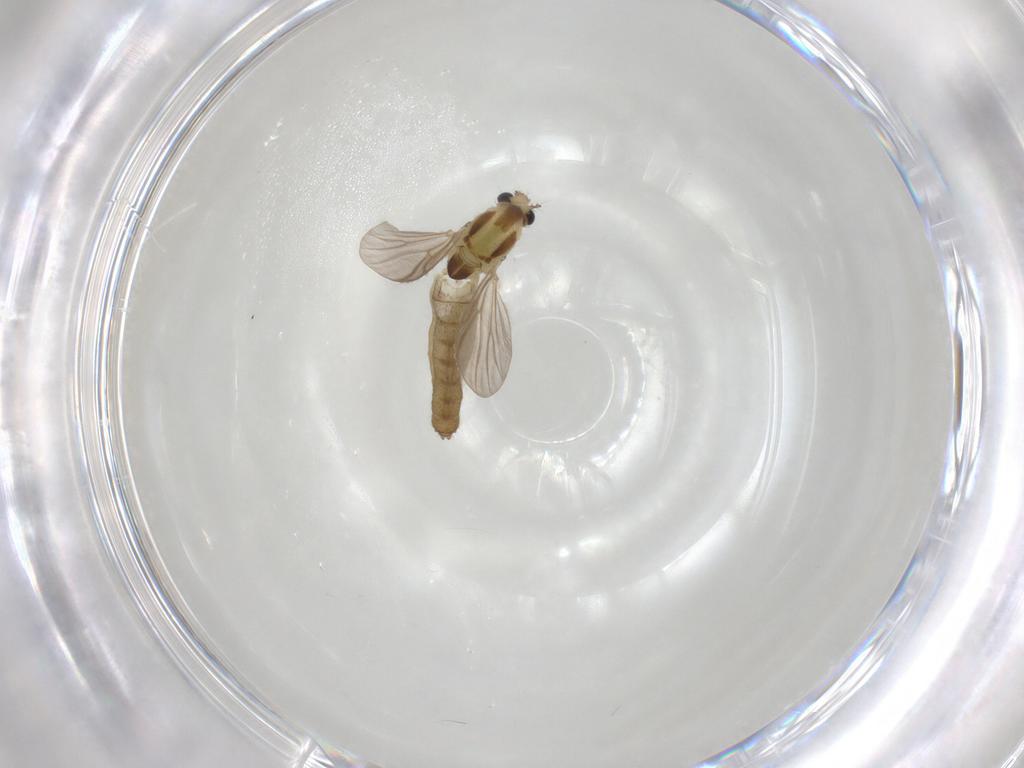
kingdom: Animalia
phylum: Arthropoda
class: Insecta
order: Diptera
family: Chironomidae
